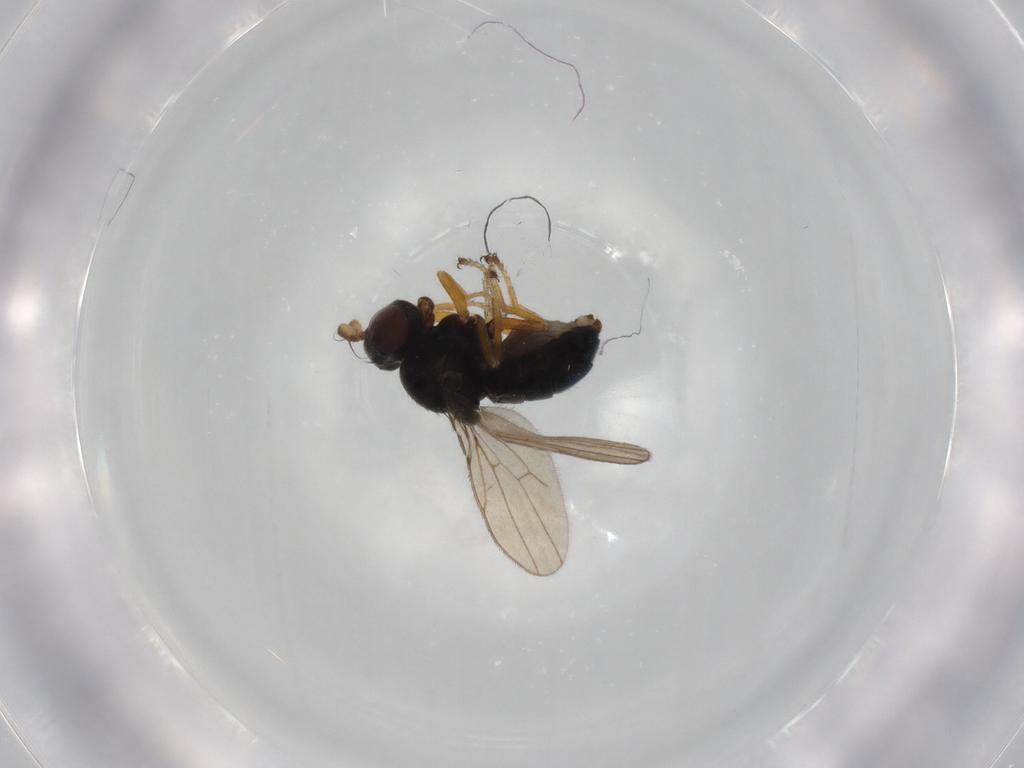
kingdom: Animalia
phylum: Arthropoda
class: Insecta
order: Diptera
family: Ephydridae
